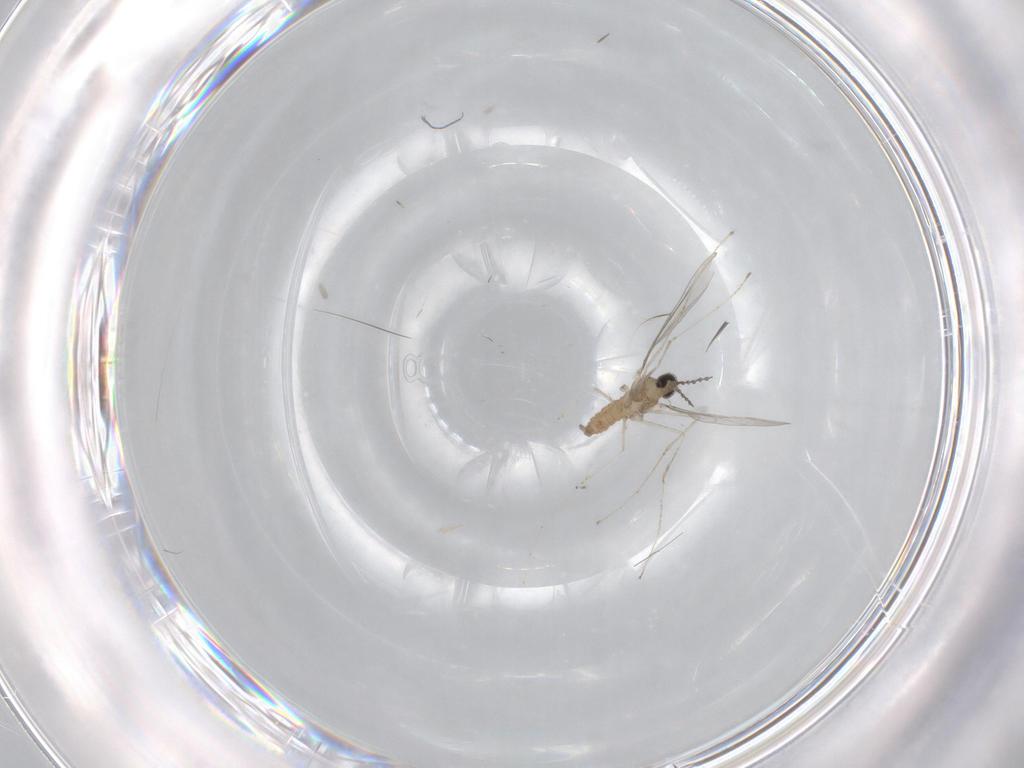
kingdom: Animalia
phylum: Arthropoda
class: Insecta
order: Diptera
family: Cecidomyiidae
